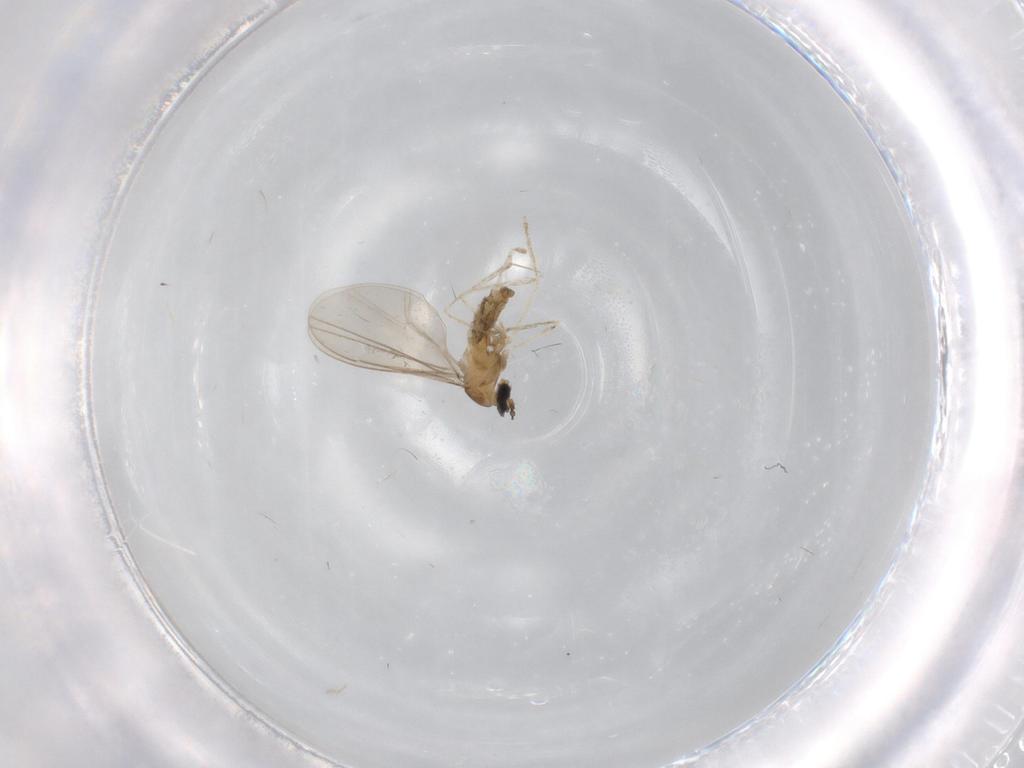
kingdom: Animalia
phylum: Arthropoda
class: Insecta
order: Diptera
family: Cecidomyiidae
